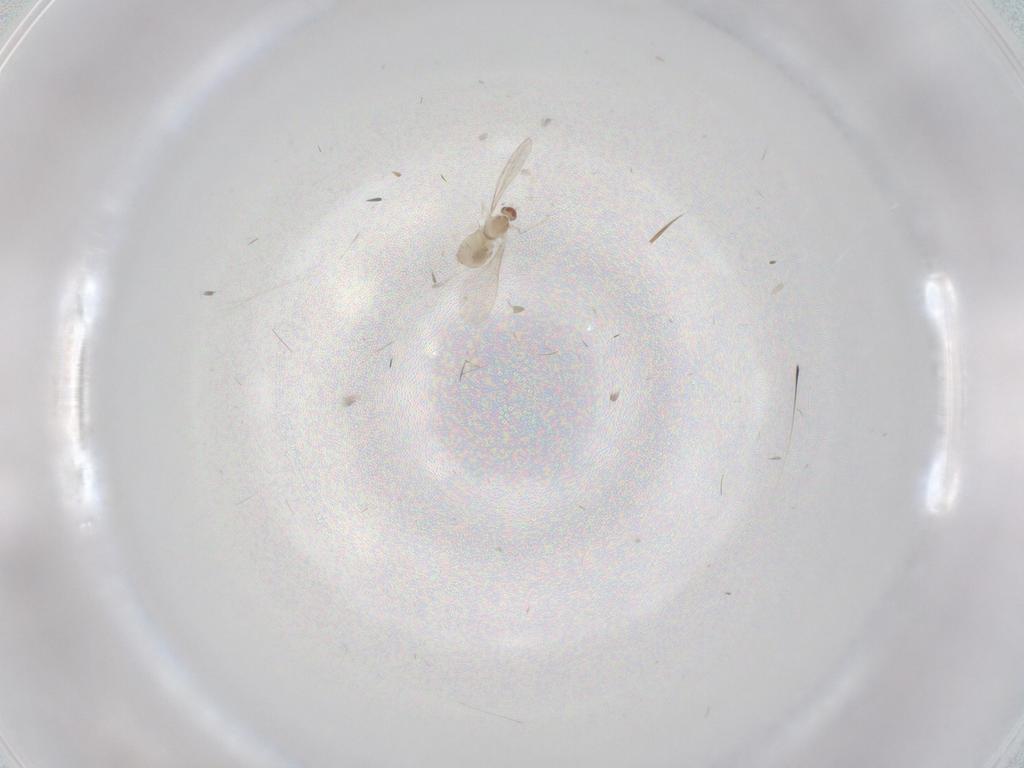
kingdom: Animalia
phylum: Arthropoda
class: Insecta
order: Diptera
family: Cecidomyiidae
